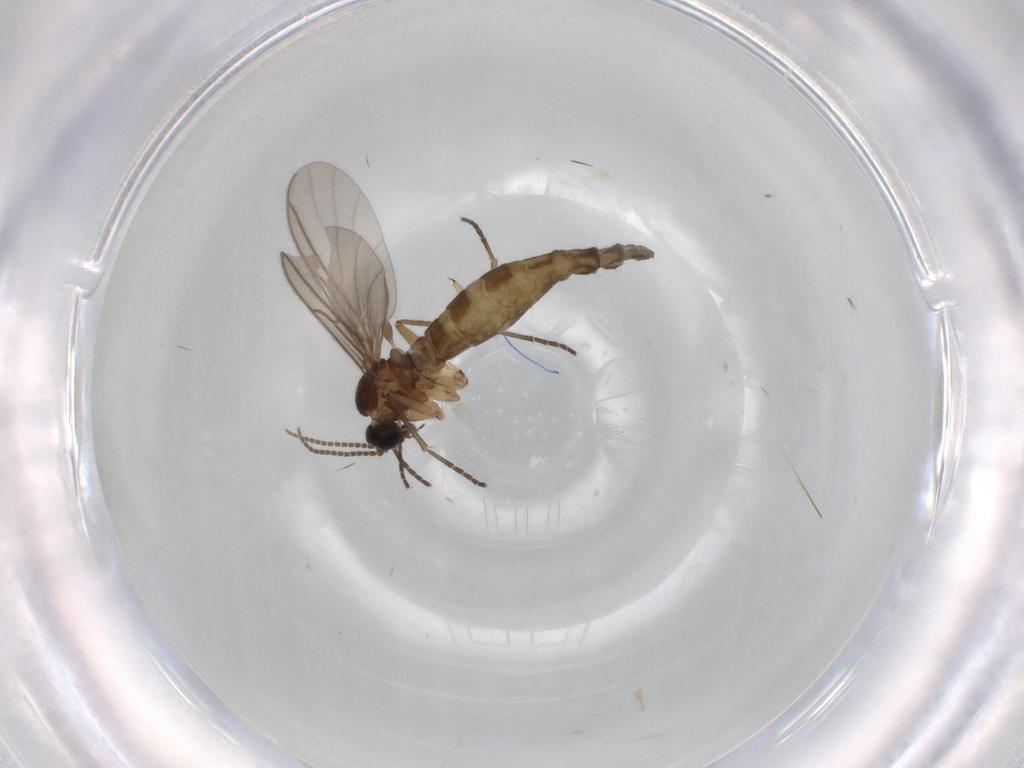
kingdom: Animalia
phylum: Arthropoda
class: Insecta
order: Diptera
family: Sciaridae
